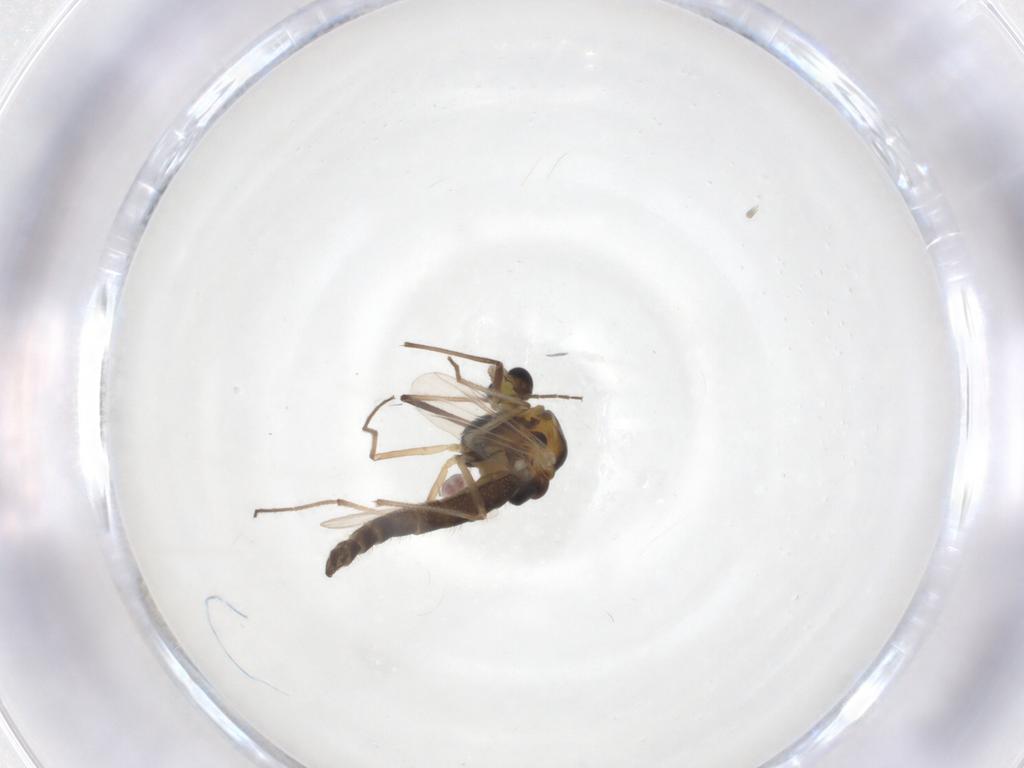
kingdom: Animalia
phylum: Arthropoda
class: Insecta
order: Diptera
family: Chironomidae
